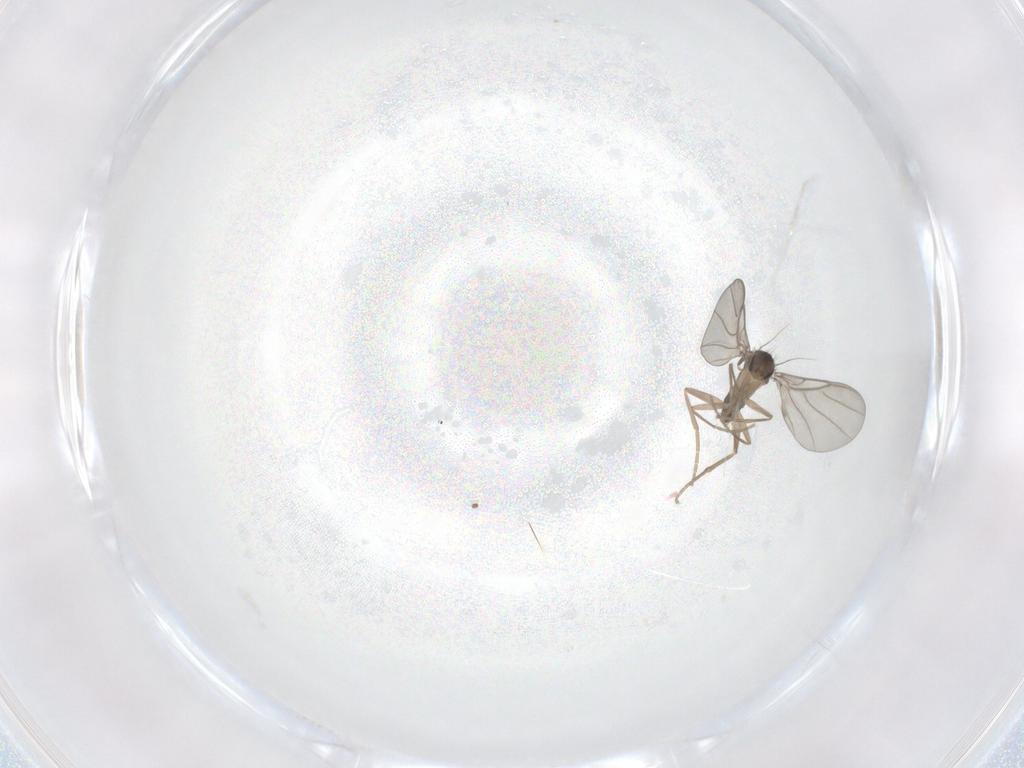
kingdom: Animalia
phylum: Arthropoda
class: Insecta
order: Diptera
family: Phoridae
